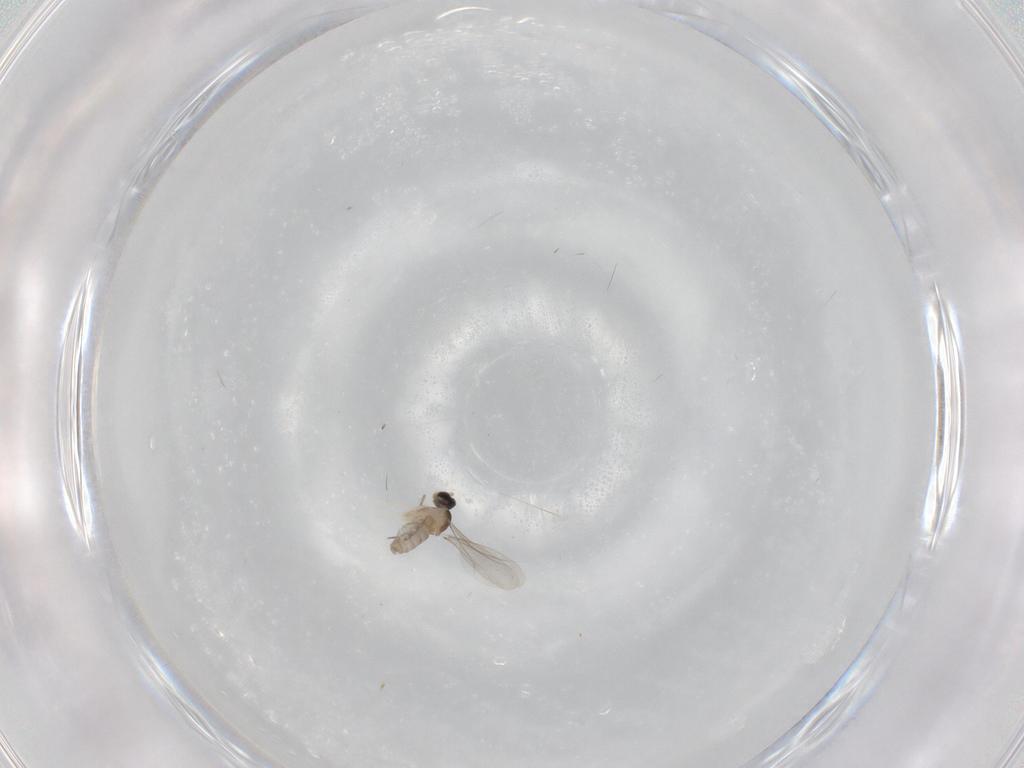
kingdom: Animalia
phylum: Arthropoda
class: Insecta
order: Diptera
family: Cecidomyiidae
